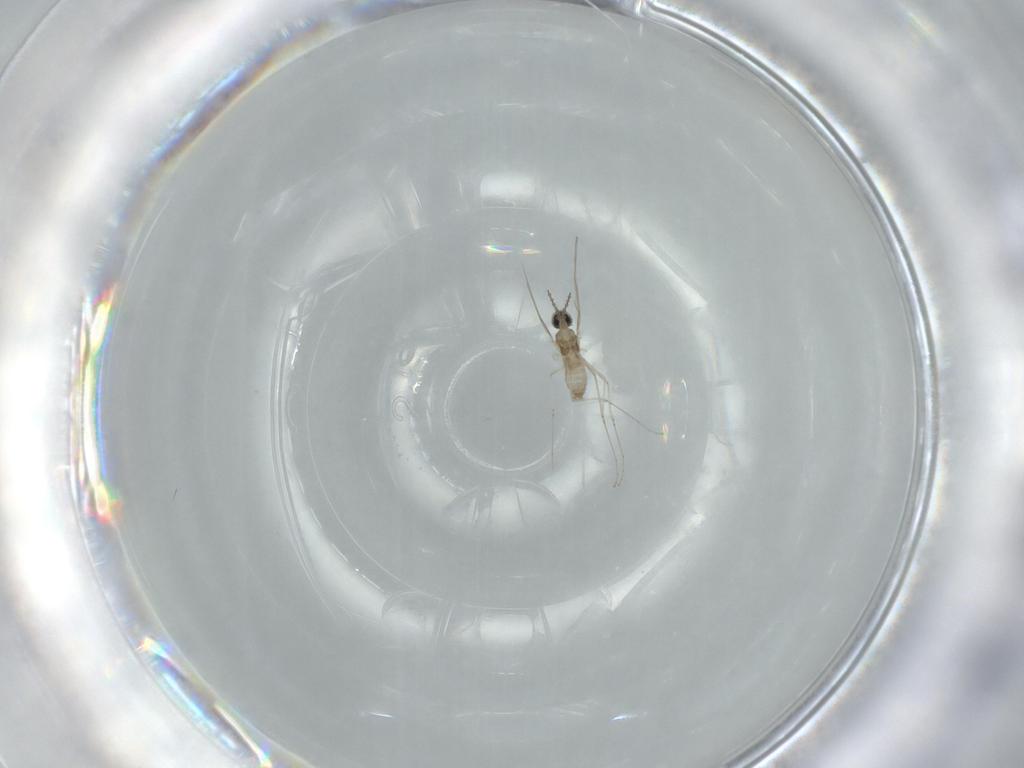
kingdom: Animalia
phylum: Arthropoda
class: Insecta
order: Diptera
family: Cecidomyiidae
